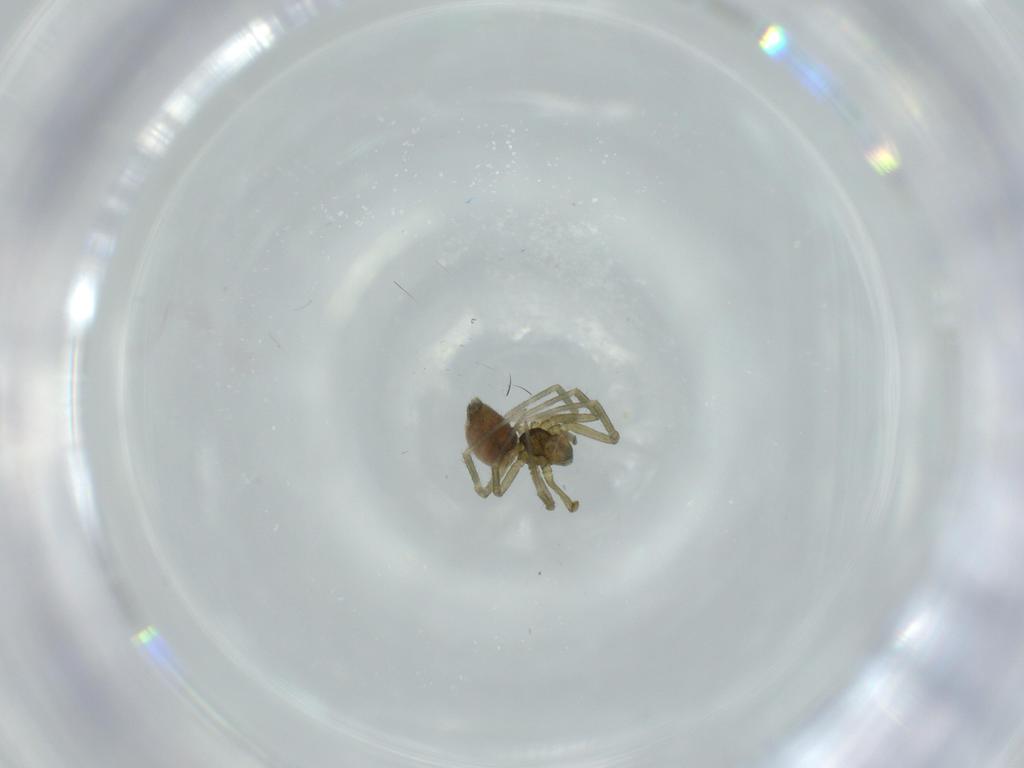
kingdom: Animalia
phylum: Arthropoda
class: Arachnida
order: Araneae
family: Linyphiidae
